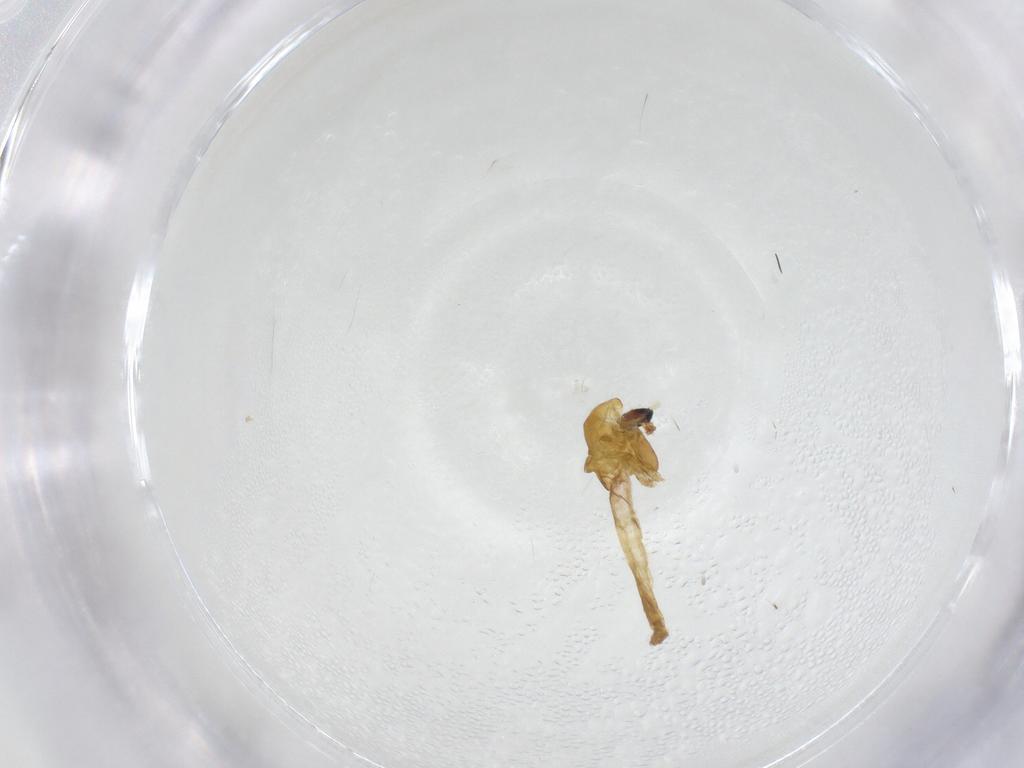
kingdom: Animalia
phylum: Arthropoda
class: Insecta
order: Diptera
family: Chironomidae
